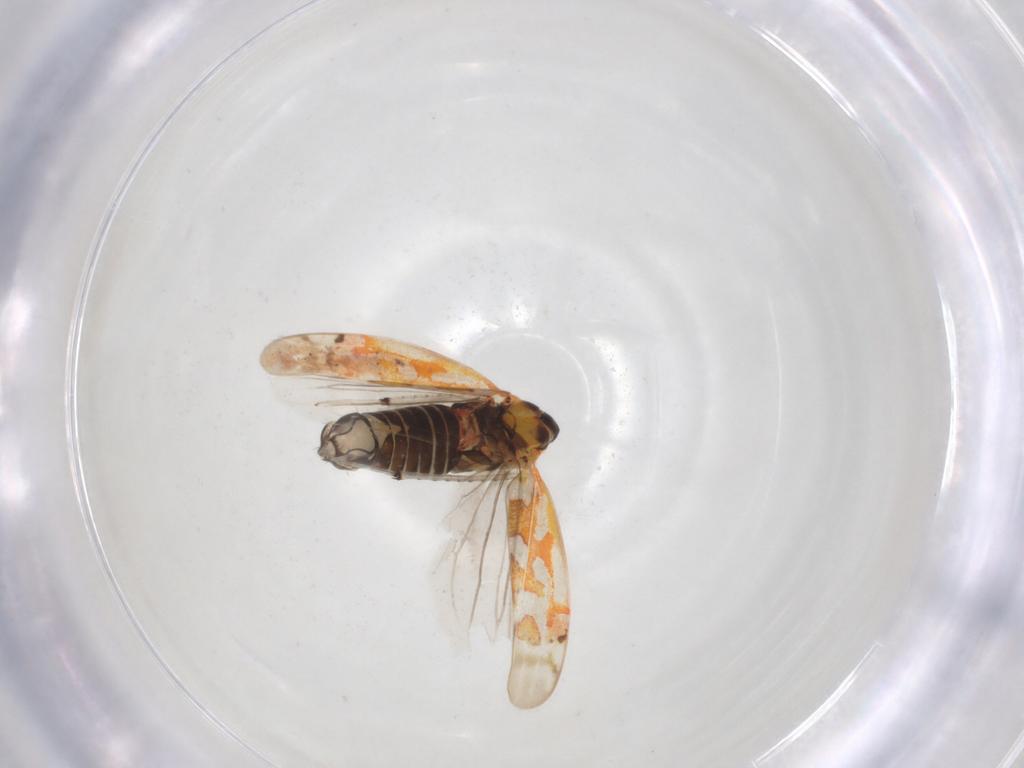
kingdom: Animalia
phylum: Arthropoda
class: Insecta
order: Hemiptera
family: Cicadellidae
